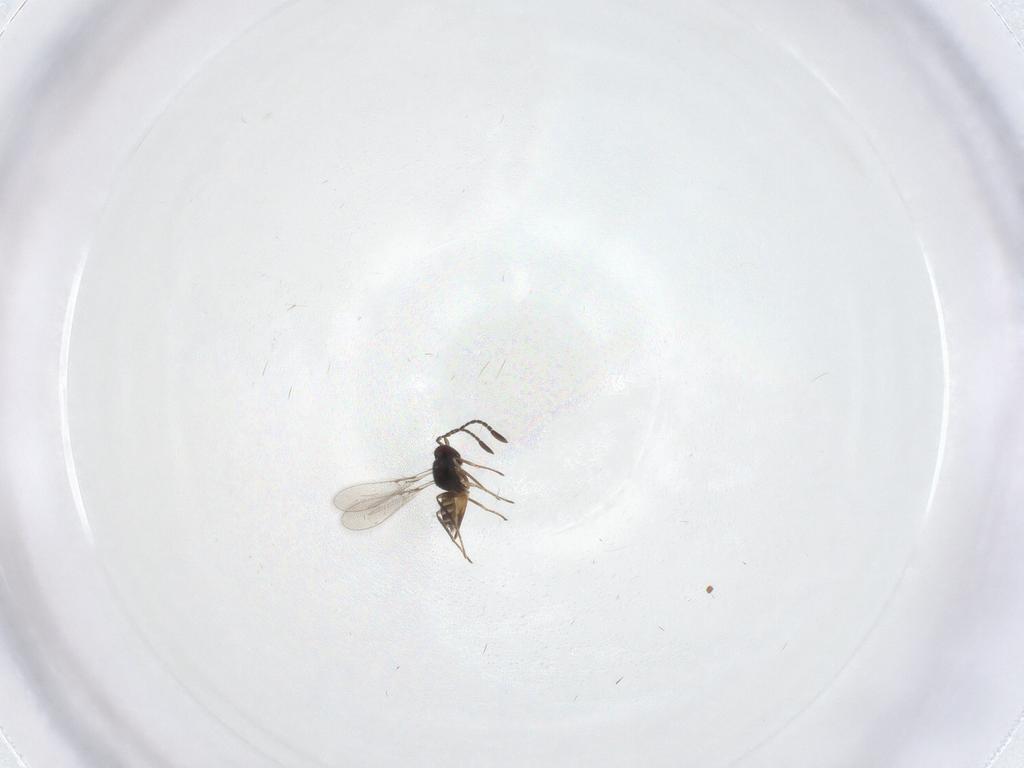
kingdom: Animalia
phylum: Arthropoda
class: Insecta
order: Hymenoptera
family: Mymaridae
